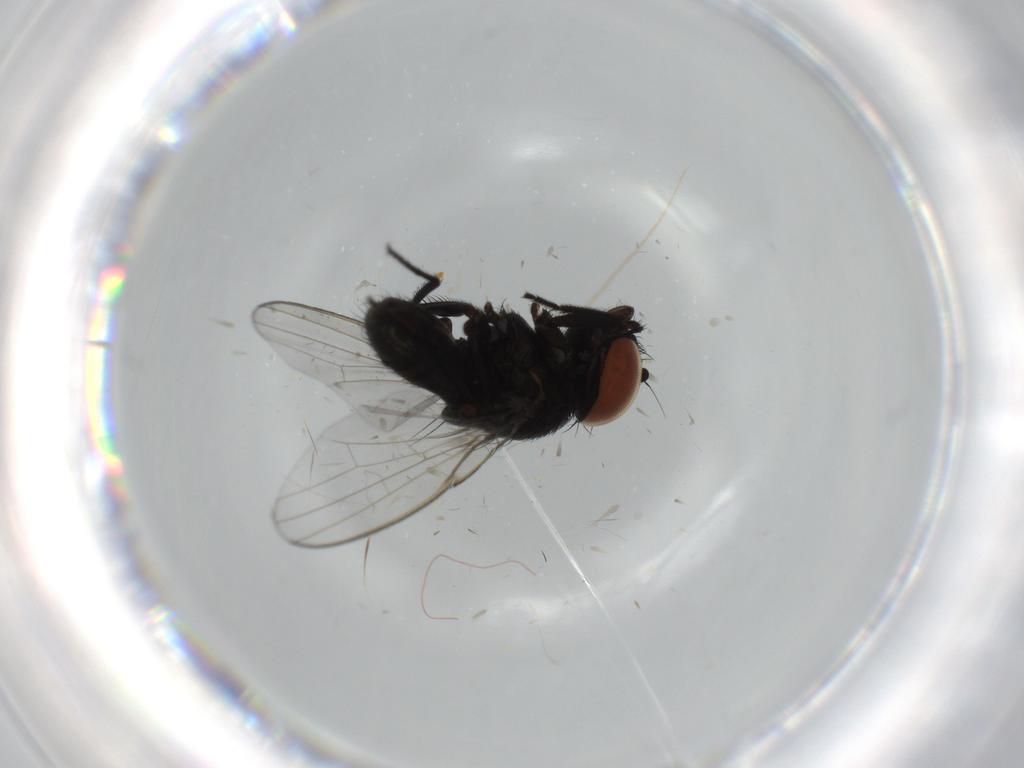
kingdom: Animalia
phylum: Arthropoda
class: Insecta
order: Diptera
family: Milichiidae
